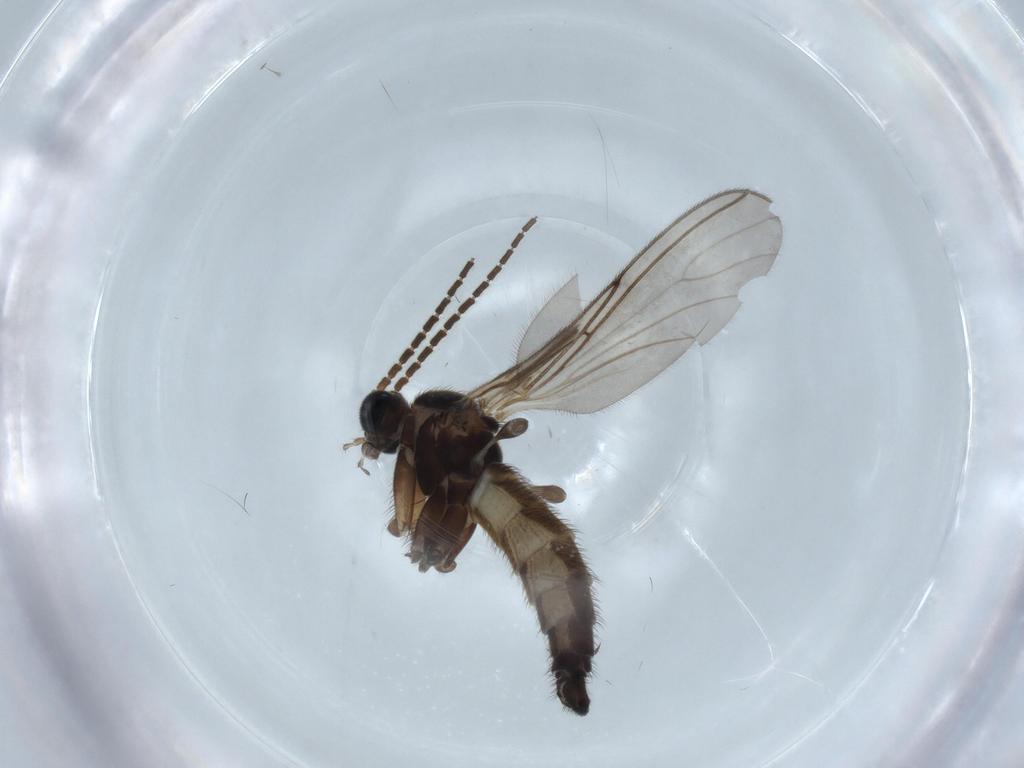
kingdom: Animalia
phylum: Arthropoda
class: Insecta
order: Diptera
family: Sciaridae
